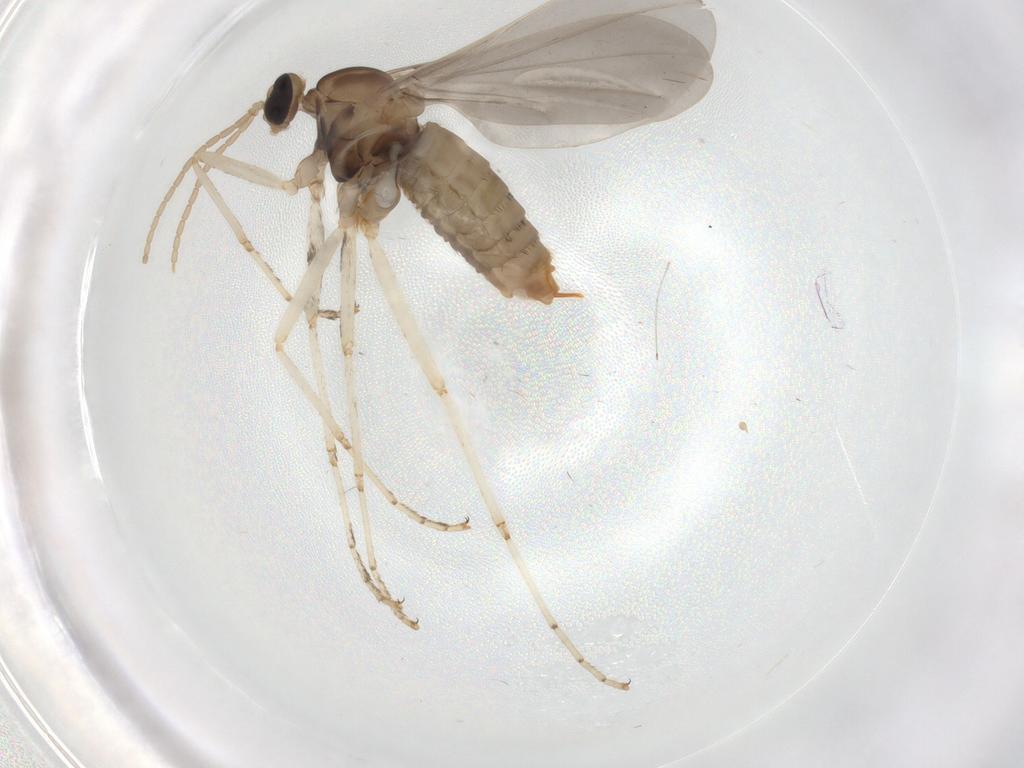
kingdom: Animalia
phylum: Arthropoda
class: Insecta
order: Diptera
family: Cecidomyiidae
